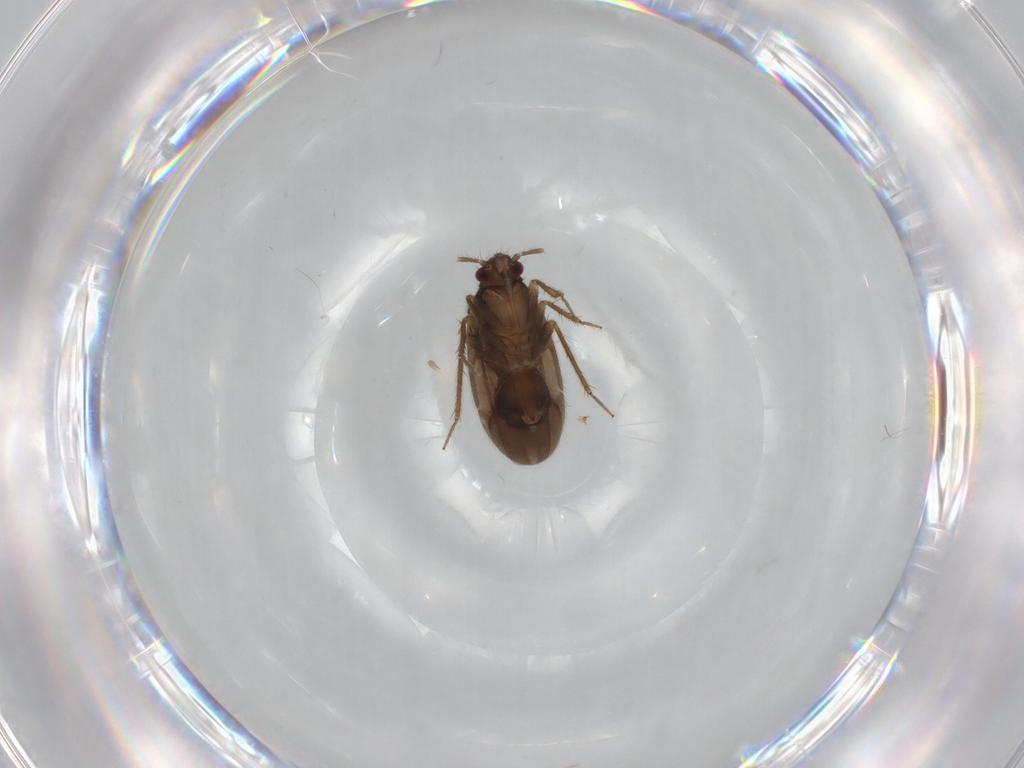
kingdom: Animalia
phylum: Arthropoda
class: Insecta
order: Hemiptera
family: Ceratocombidae
